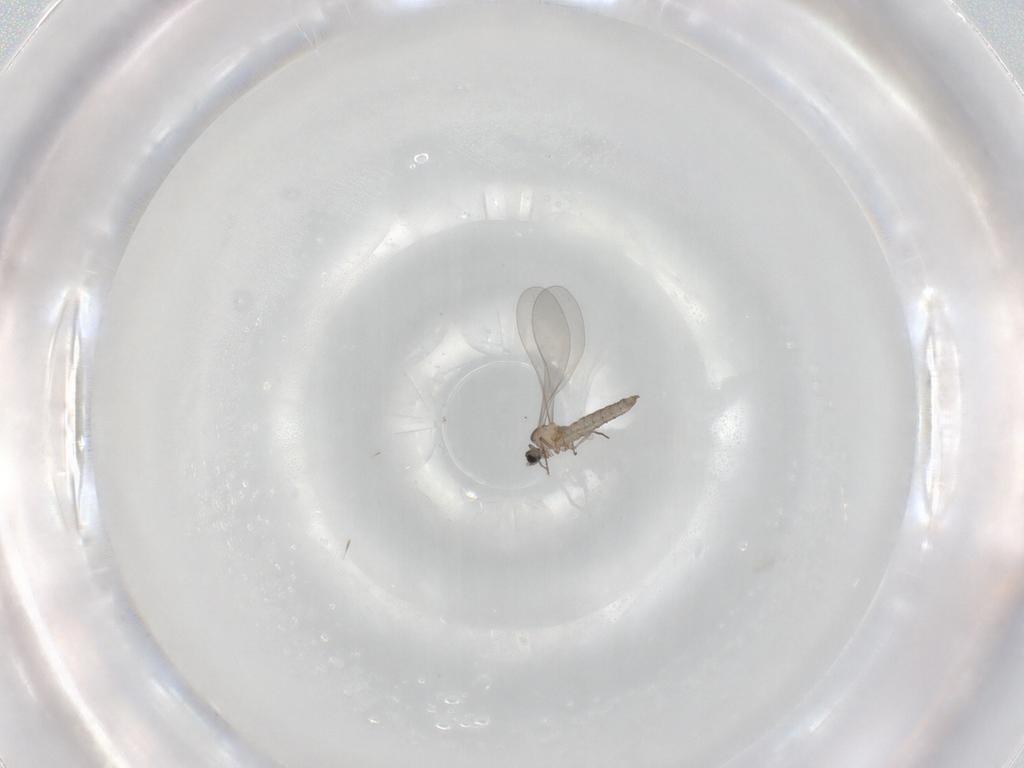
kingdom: Animalia
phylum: Arthropoda
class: Insecta
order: Diptera
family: Cecidomyiidae
